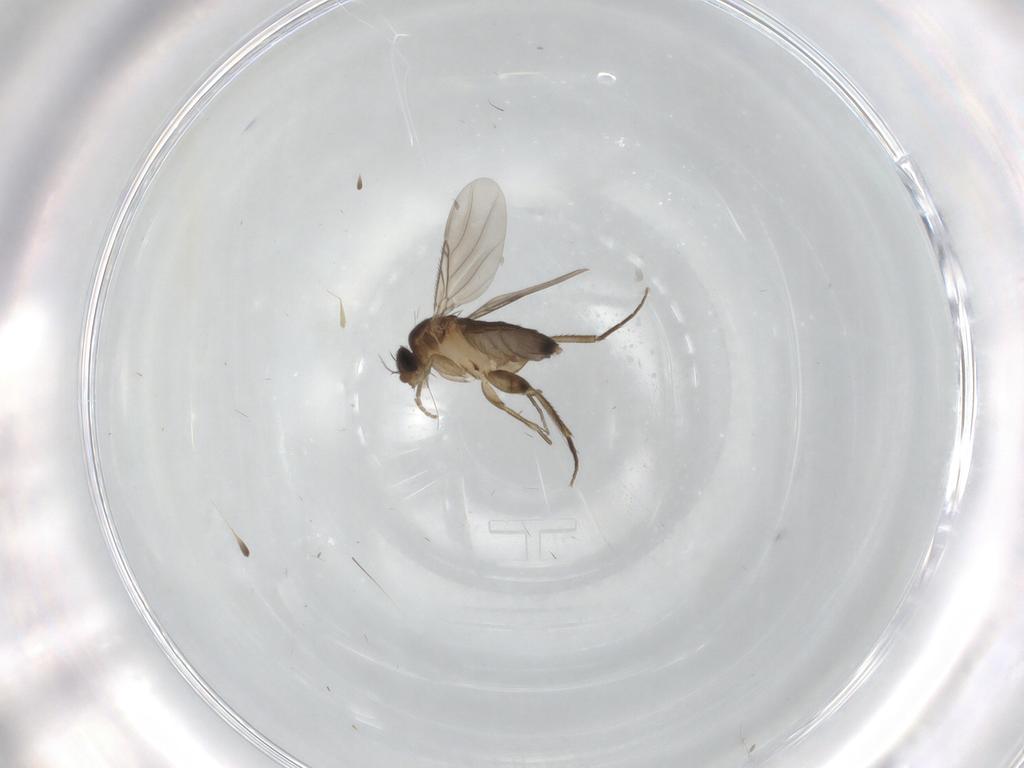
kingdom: Animalia
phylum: Arthropoda
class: Insecta
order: Diptera
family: Phoridae
